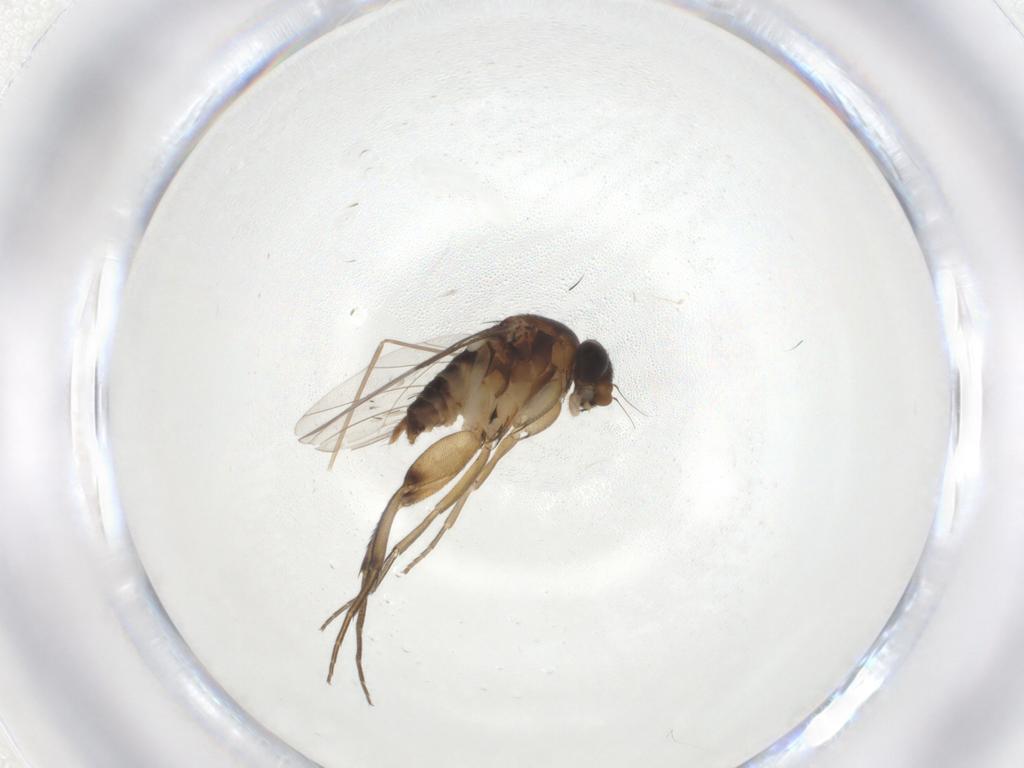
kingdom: Animalia
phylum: Arthropoda
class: Insecta
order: Diptera
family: Phoridae
